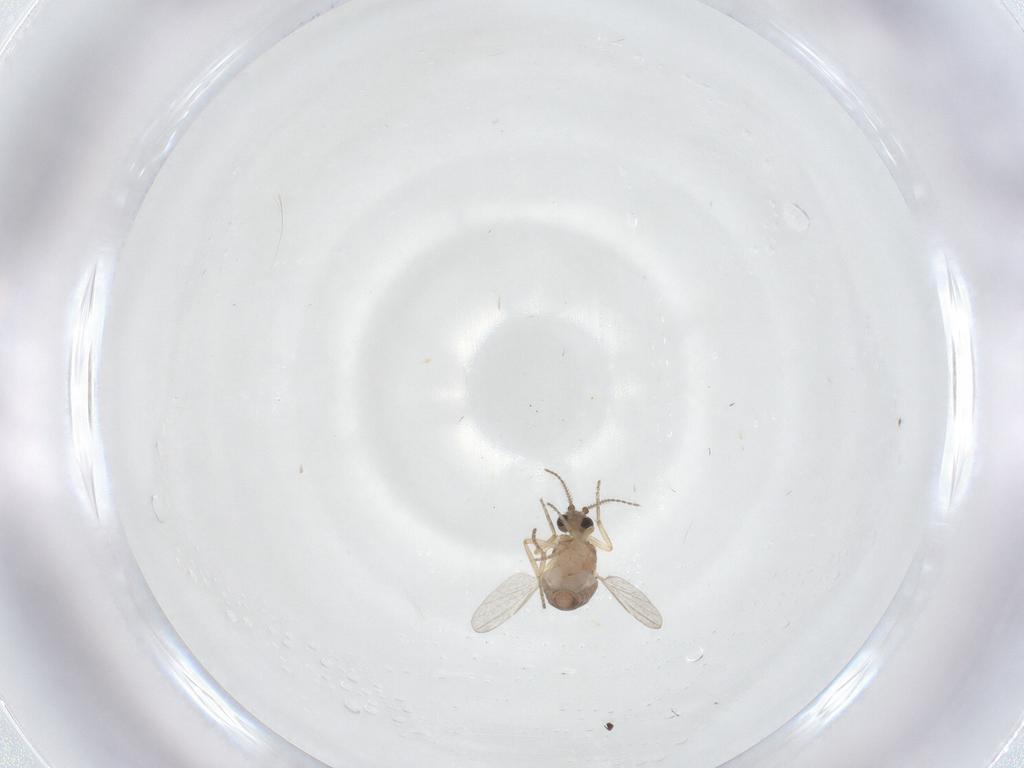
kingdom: Animalia
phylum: Arthropoda
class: Insecta
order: Diptera
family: Ceratopogonidae
